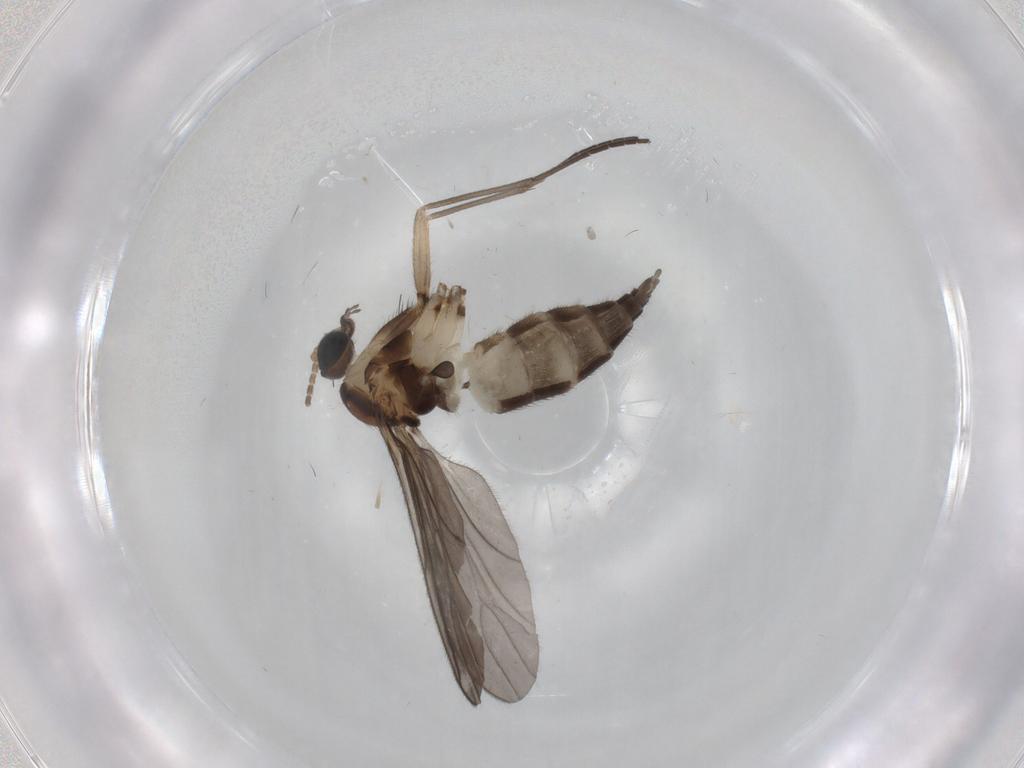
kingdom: Animalia
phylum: Arthropoda
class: Insecta
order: Diptera
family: Sciaridae
